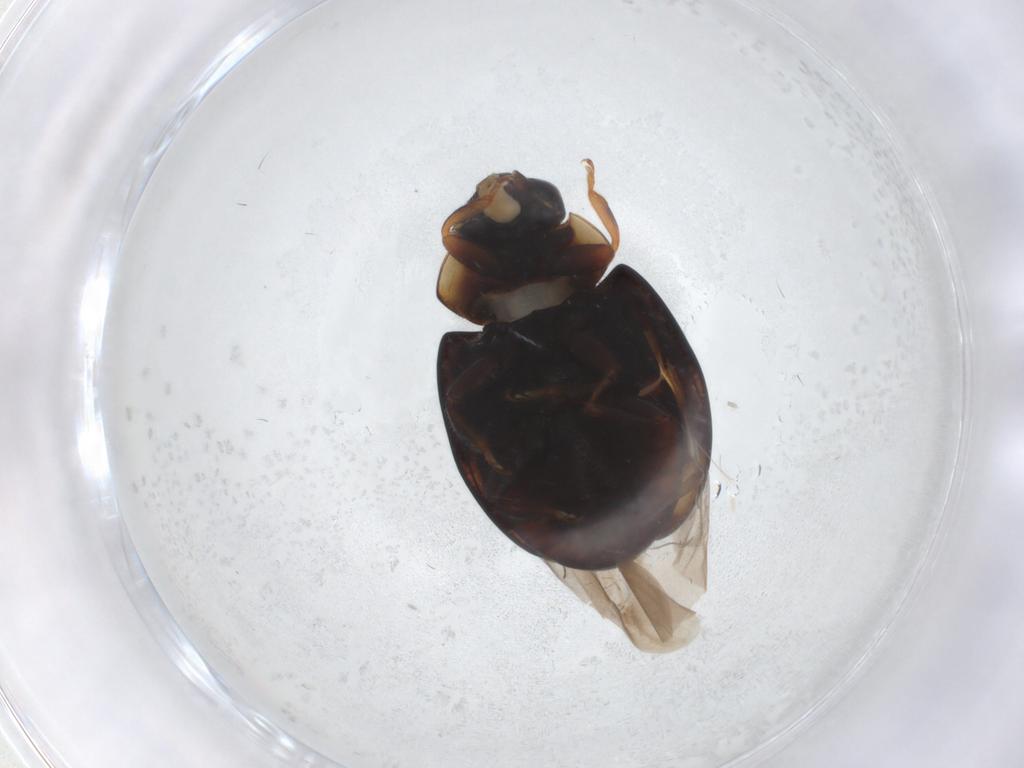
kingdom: Animalia
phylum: Arthropoda
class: Insecta
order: Coleoptera
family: Coccinellidae
